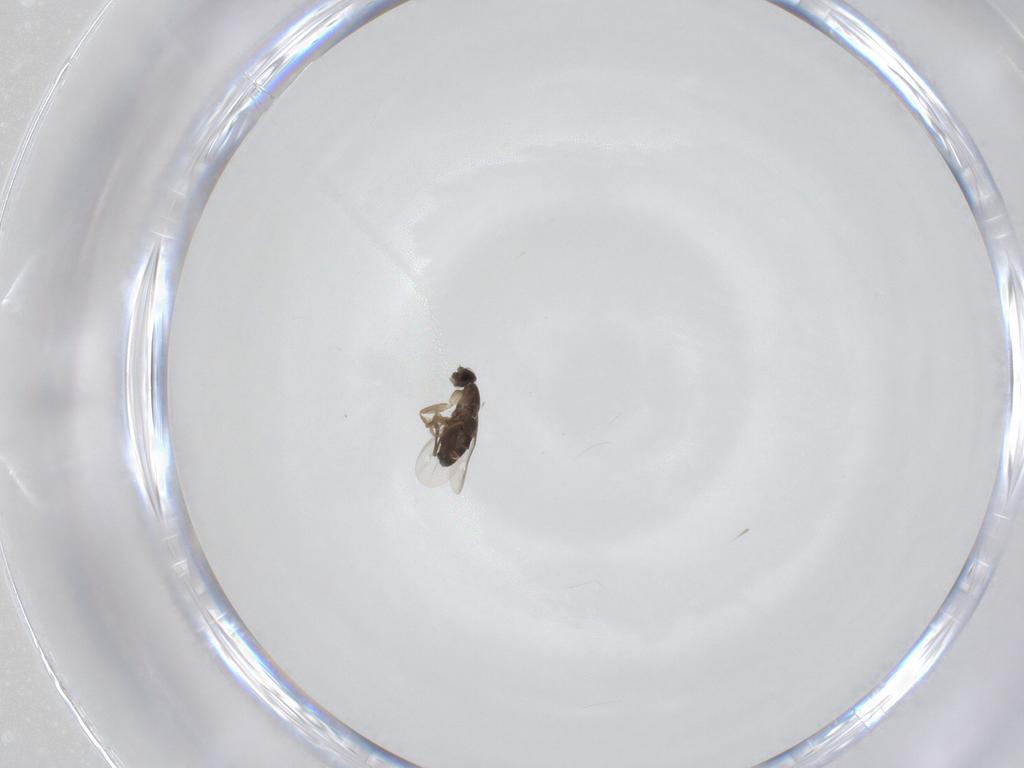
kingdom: Animalia
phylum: Arthropoda
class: Insecta
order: Diptera
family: Phoridae
